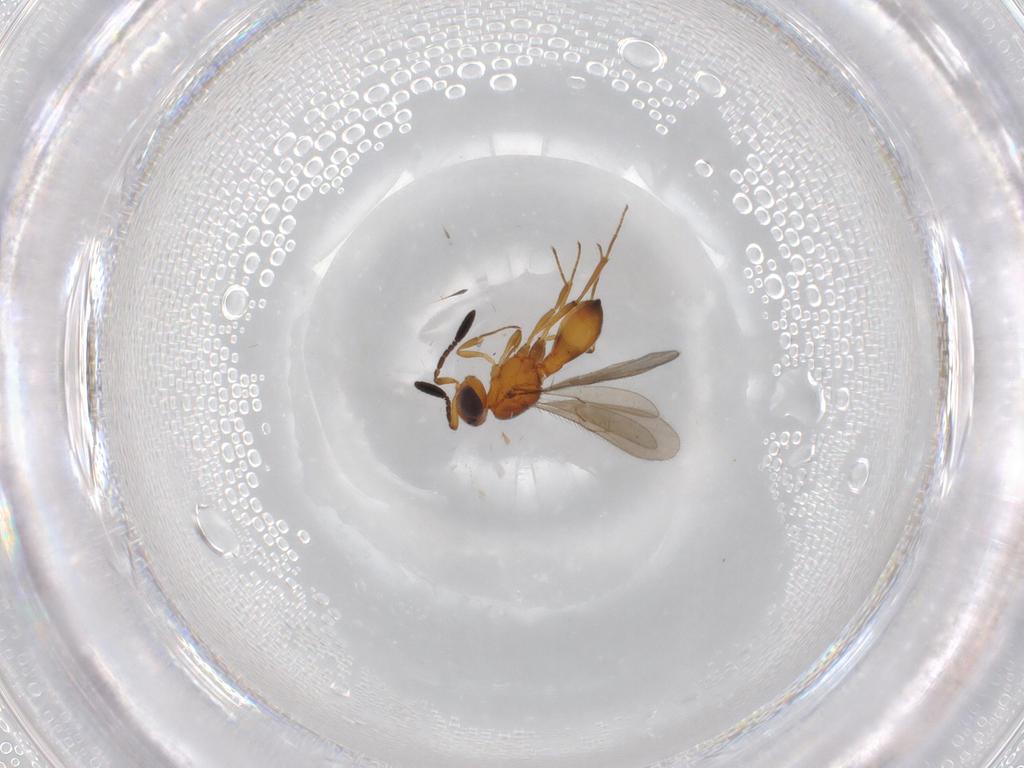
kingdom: Animalia
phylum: Arthropoda
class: Insecta
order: Hymenoptera
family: Scelionidae
